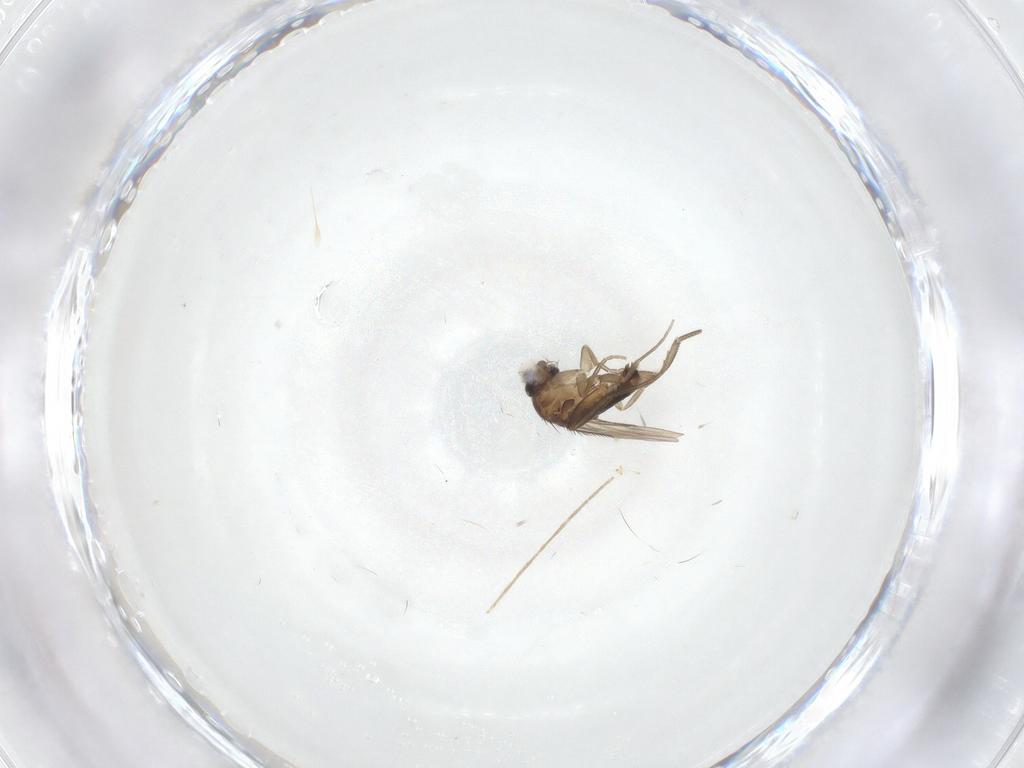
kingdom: Animalia
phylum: Arthropoda
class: Insecta
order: Diptera
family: Phoridae
